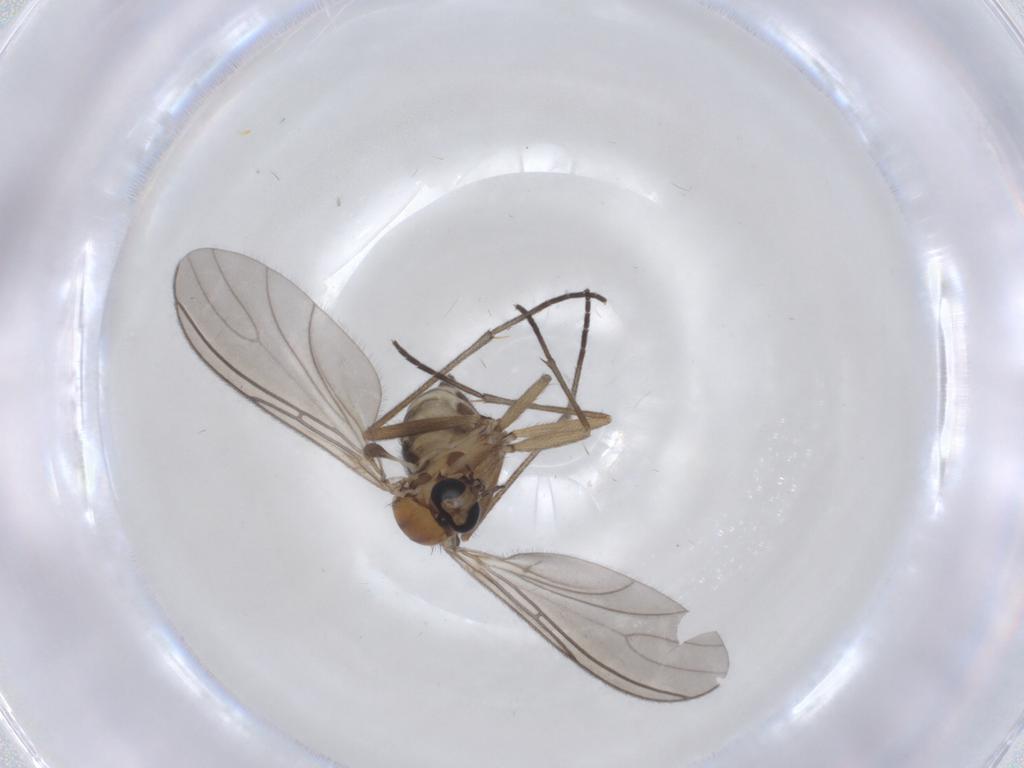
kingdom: Animalia
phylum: Arthropoda
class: Insecta
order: Diptera
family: Sciaridae
